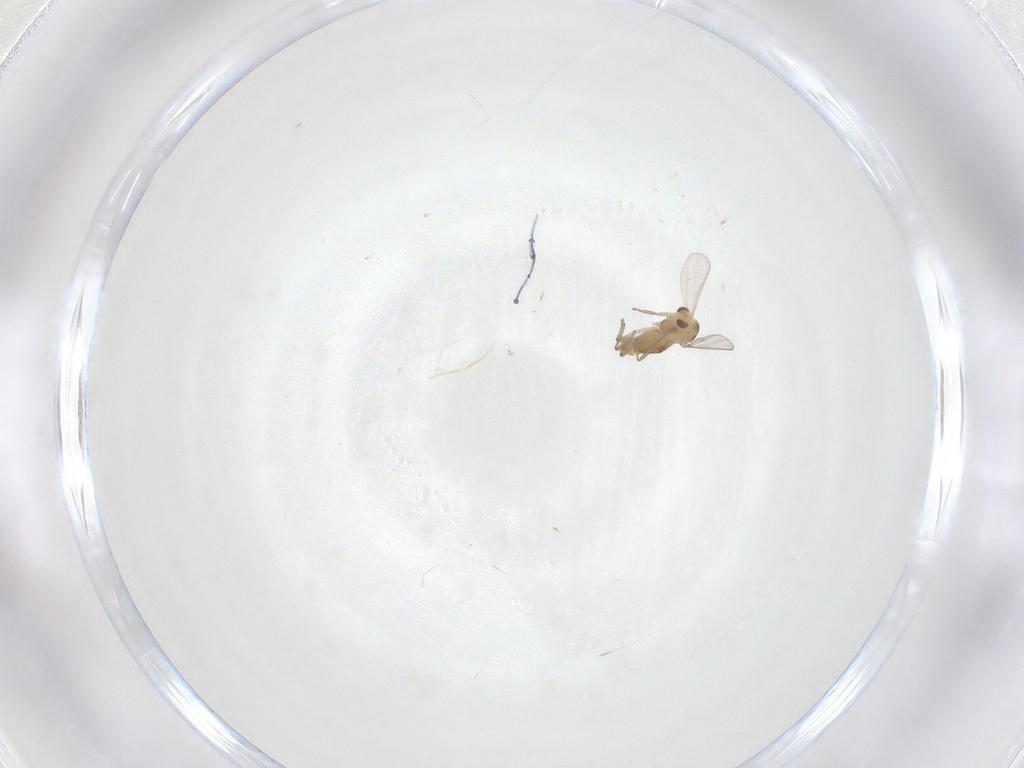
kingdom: Animalia
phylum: Arthropoda
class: Insecta
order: Diptera
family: Chironomidae
